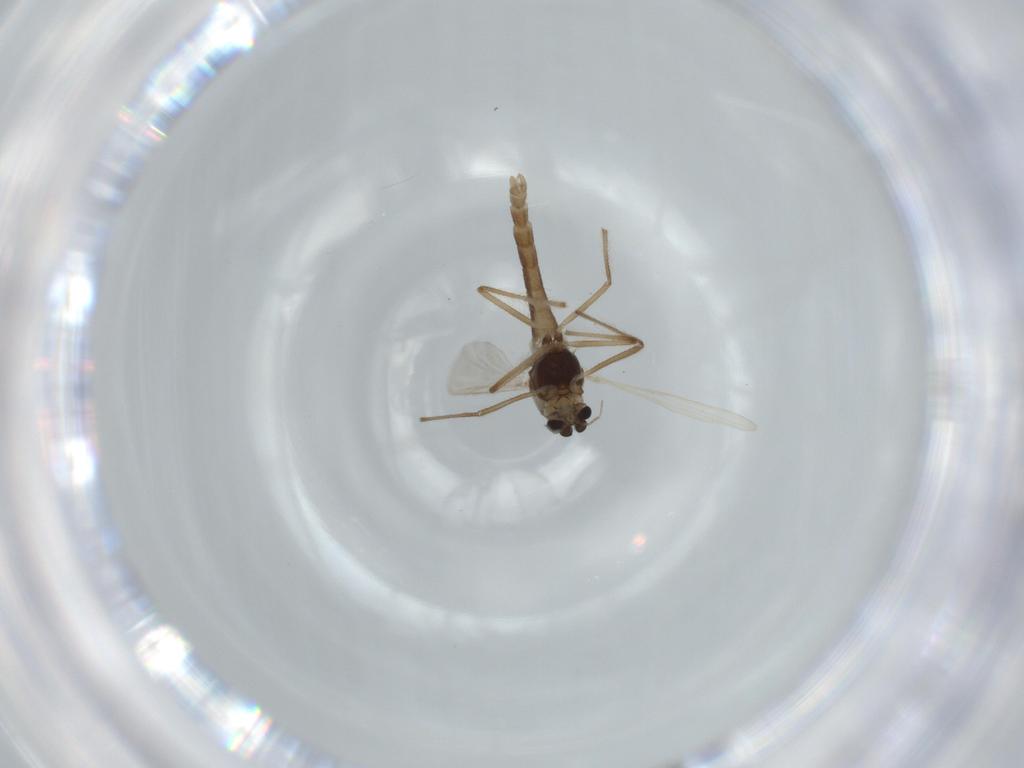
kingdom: Animalia
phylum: Arthropoda
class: Insecta
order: Diptera
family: Chironomidae
